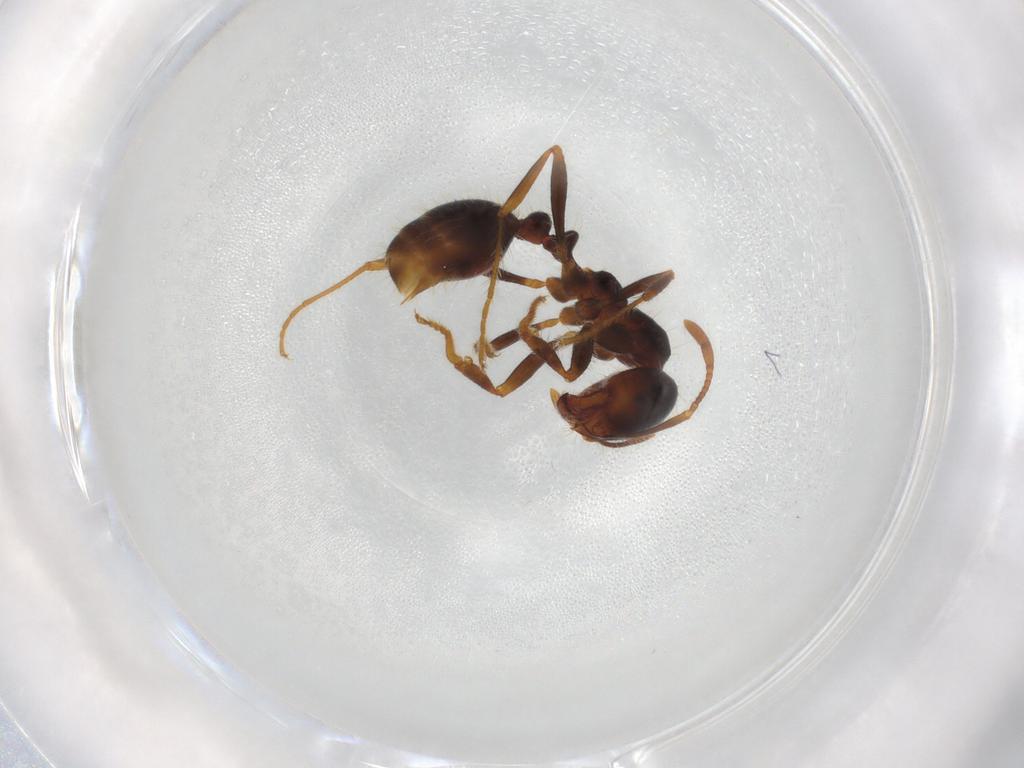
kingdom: Animalia
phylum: Arthropoda
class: Insecta
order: Hymenoptera
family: Formicidae
